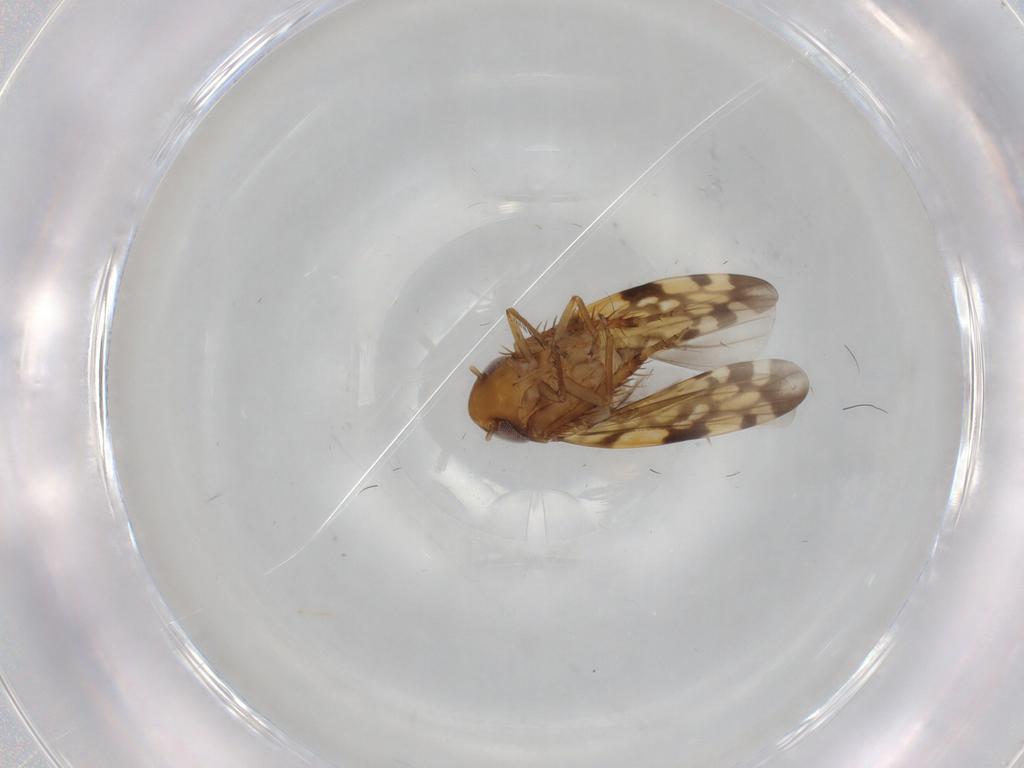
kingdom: Animalia
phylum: Arthropoda
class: Insecta
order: Hemiptera
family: Cicadellidae
